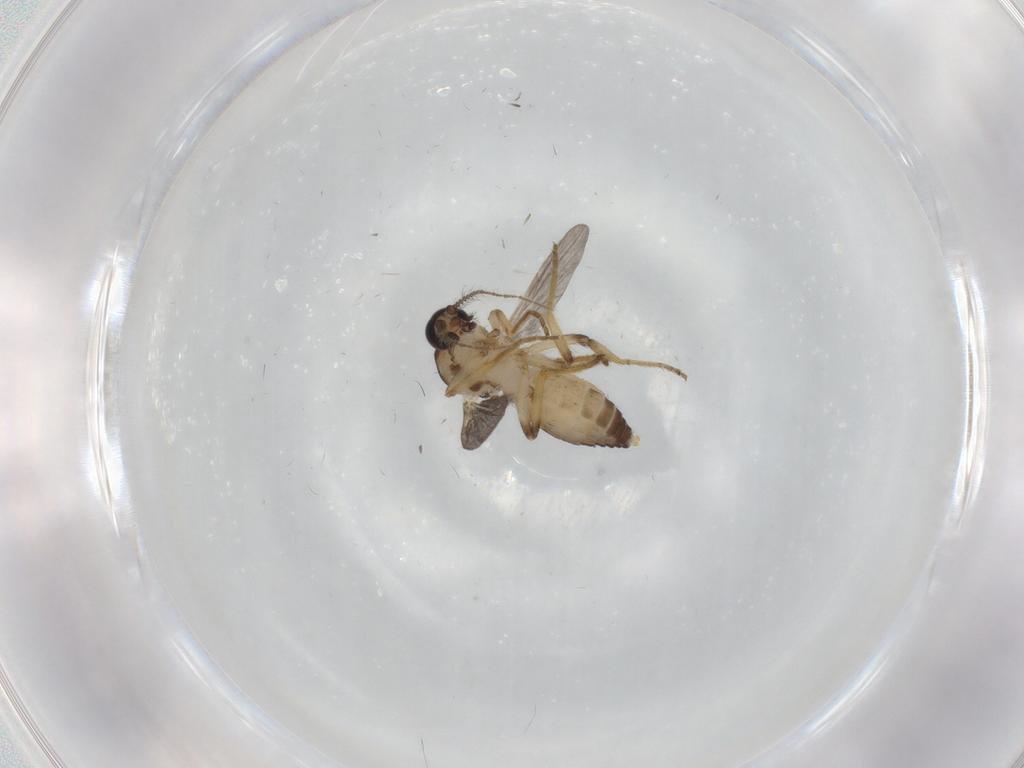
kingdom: Animalia
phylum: Arthropoda
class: Insecta
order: Diptera
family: Ceratopogonidae
